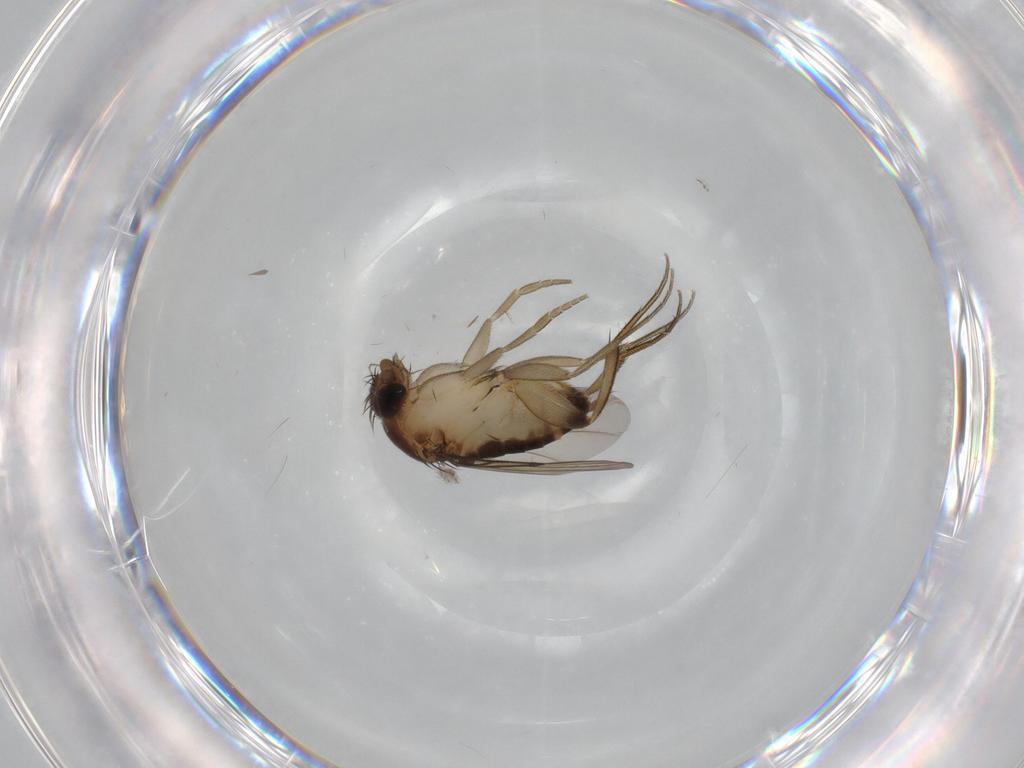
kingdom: Animalia
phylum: Arthropoda
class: Insecta
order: Diptera
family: Phoridae
